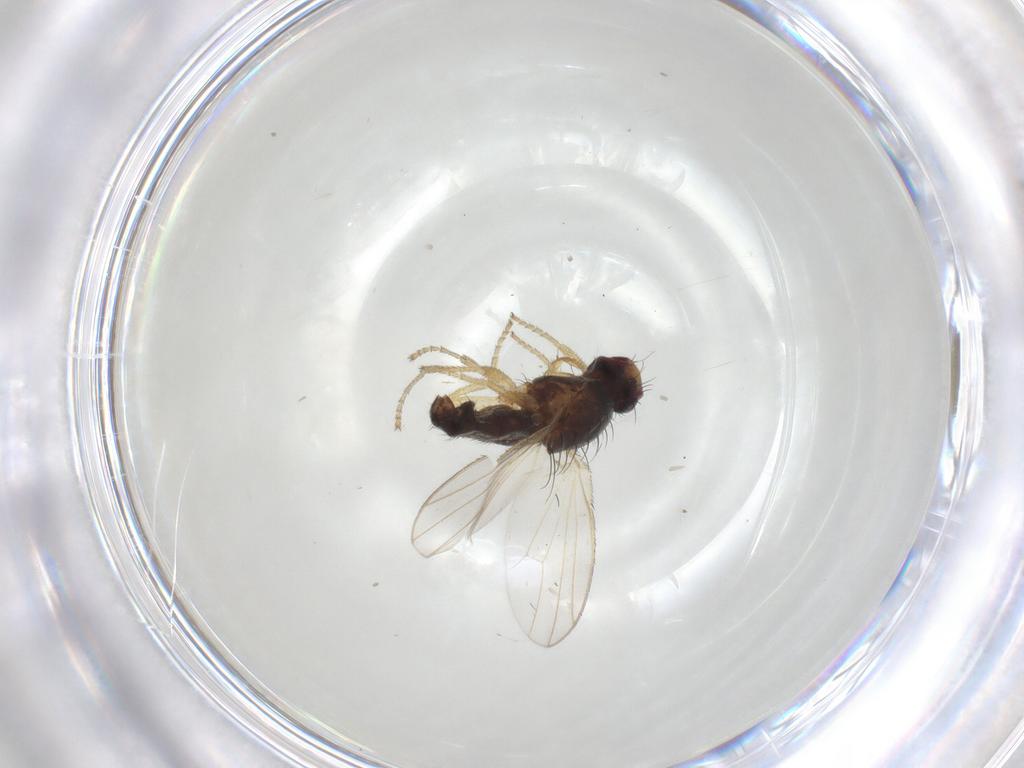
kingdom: Animalia
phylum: Arthropoda
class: Insecta
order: Diptera
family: Heleomyzidae
